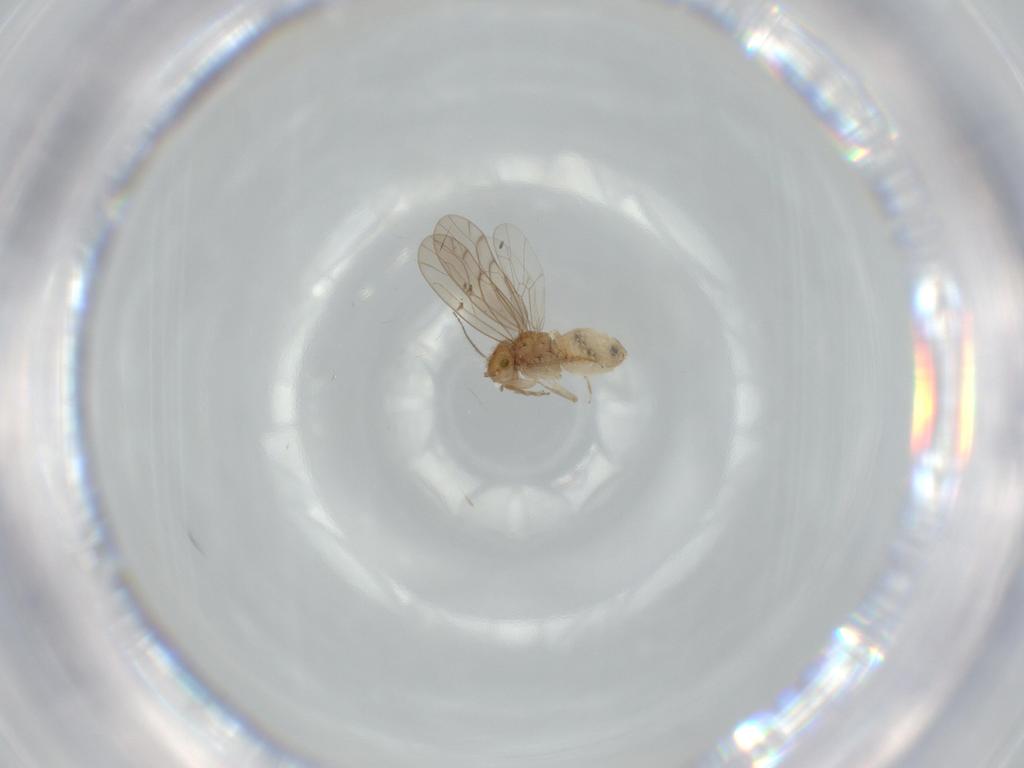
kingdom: Animalia
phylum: Arthropoda
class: Insecta
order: Psocodea
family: Ectopsocidae
